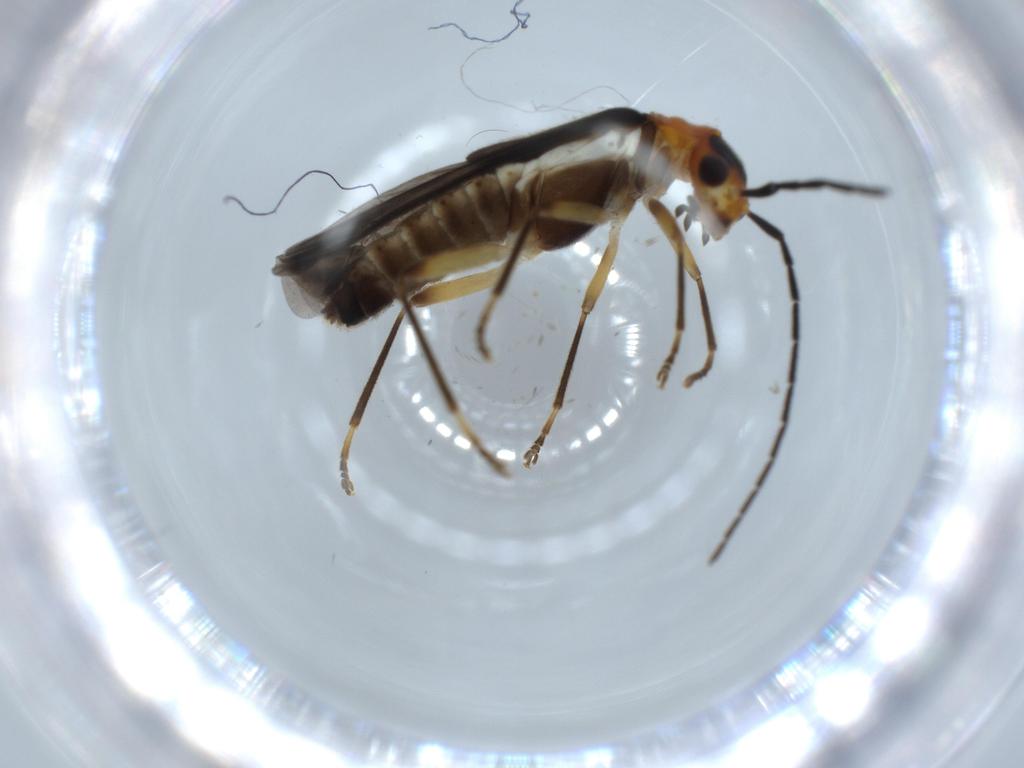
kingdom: Animalia
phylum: Arthropoda
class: Insecta
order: Coleoptera
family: Cantharidae
